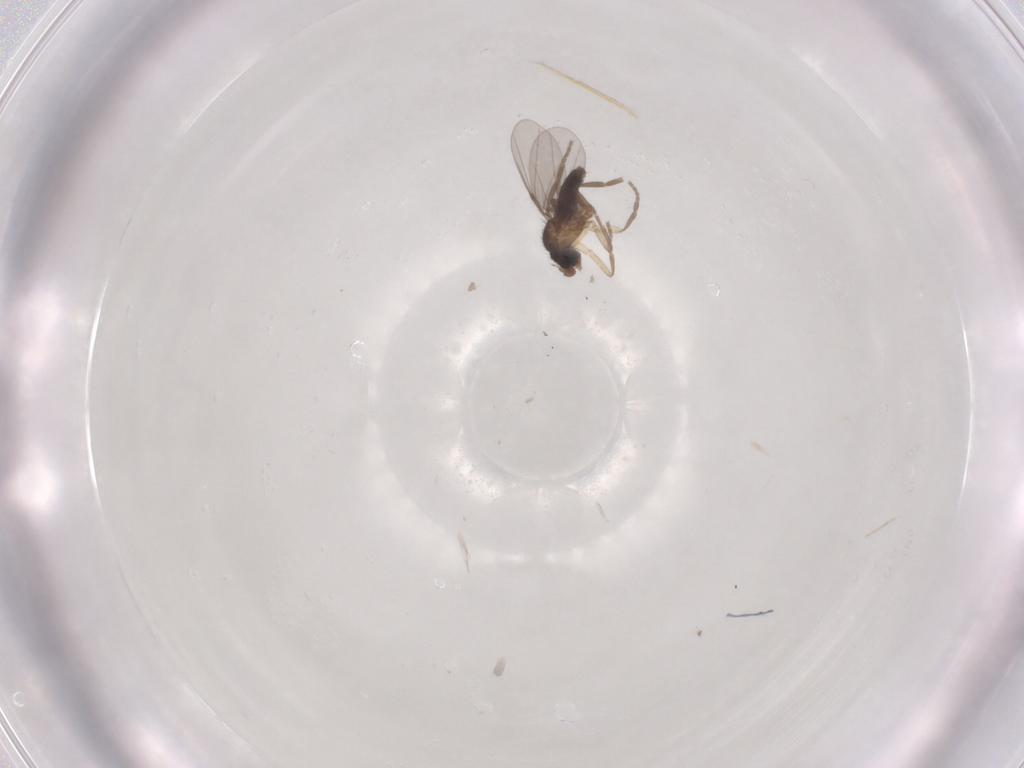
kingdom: Animalia
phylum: Arthropoda
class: Insecta
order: Diptera
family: Phoridae
